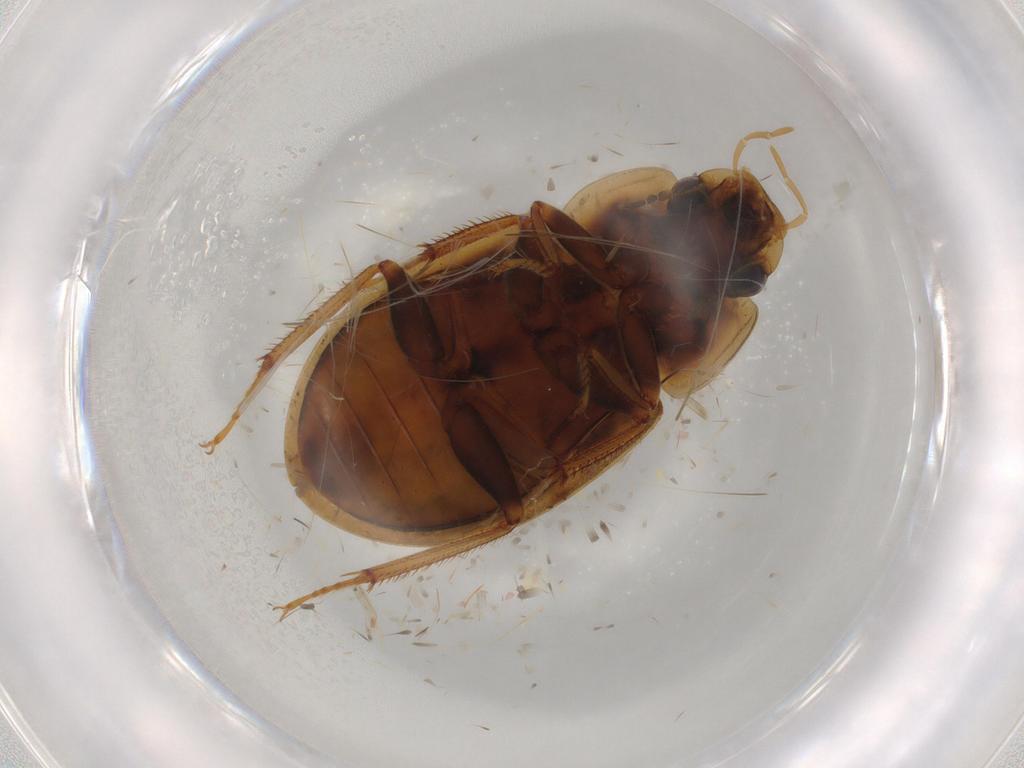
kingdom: Animalia
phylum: Arthropoda
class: Insecta
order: Coleoptera
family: Hydrophilidae
